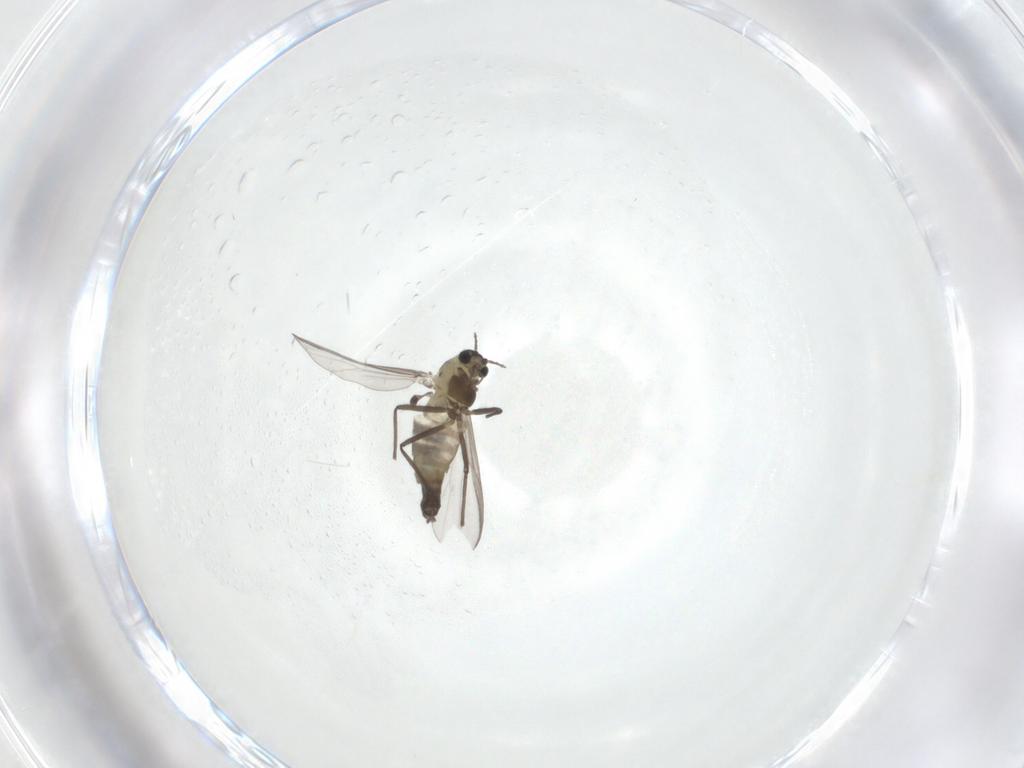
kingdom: Animalia
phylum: Arthropoda
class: Insecta
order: Diptera
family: Chironomidae
